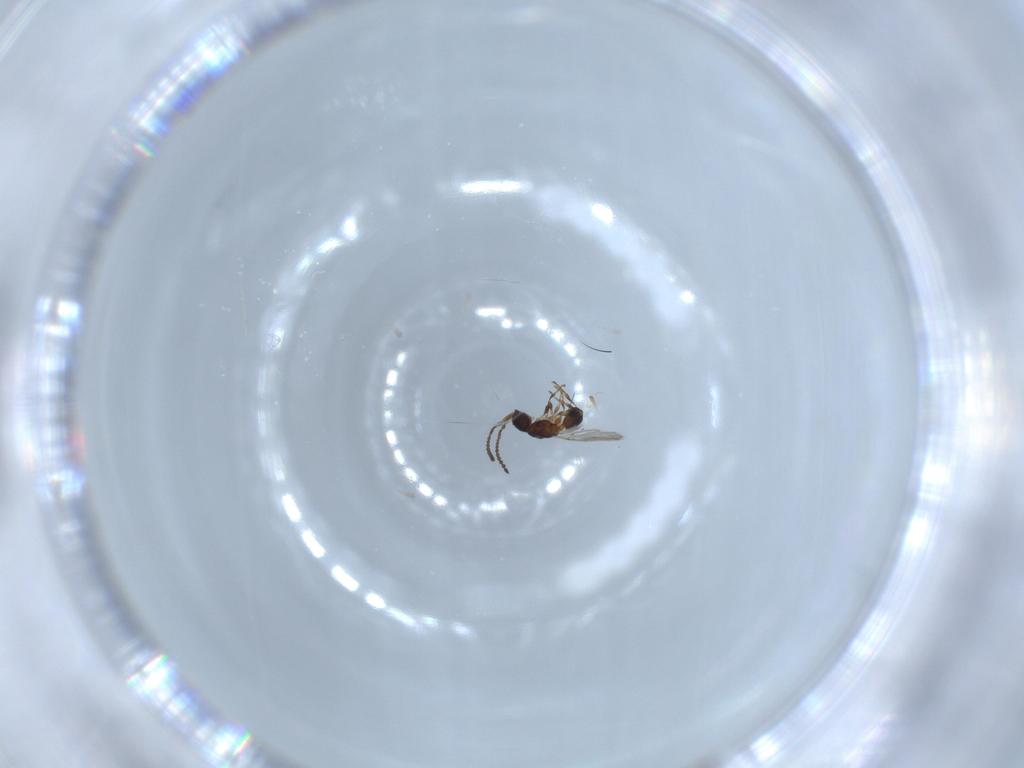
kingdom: Animalia
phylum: Arthropoda
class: Insecta
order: Hymenoptera
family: Diapriidae
